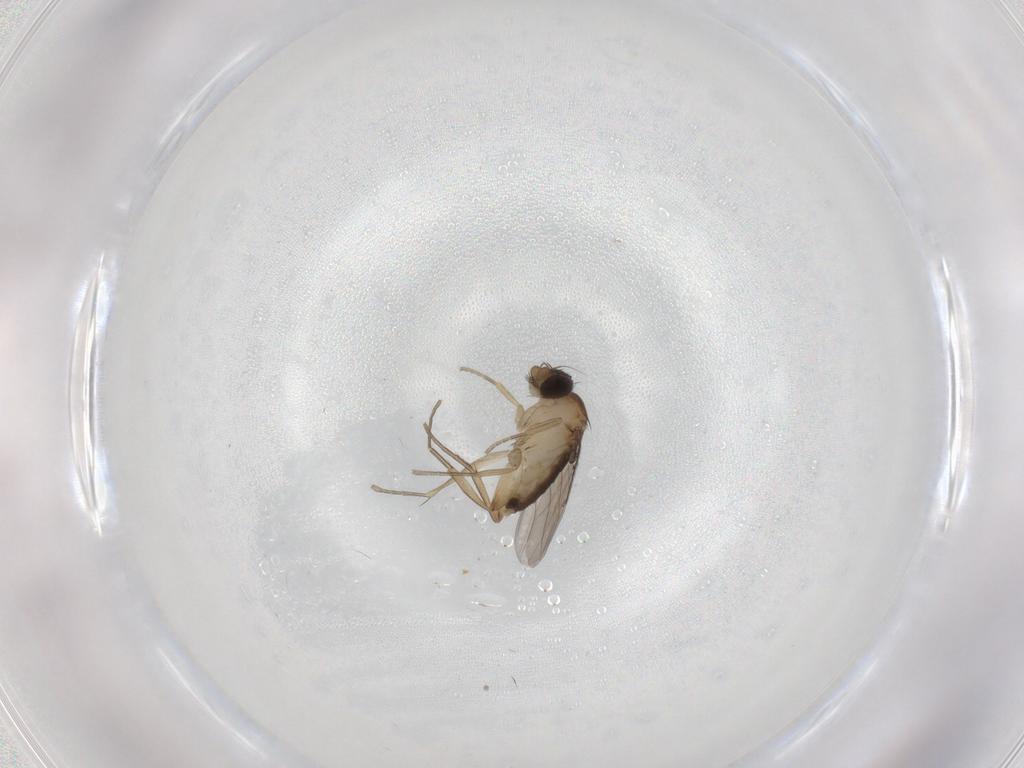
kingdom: Animalia
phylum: Arthropoda
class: Insecta
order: Diptera
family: Phoridae
